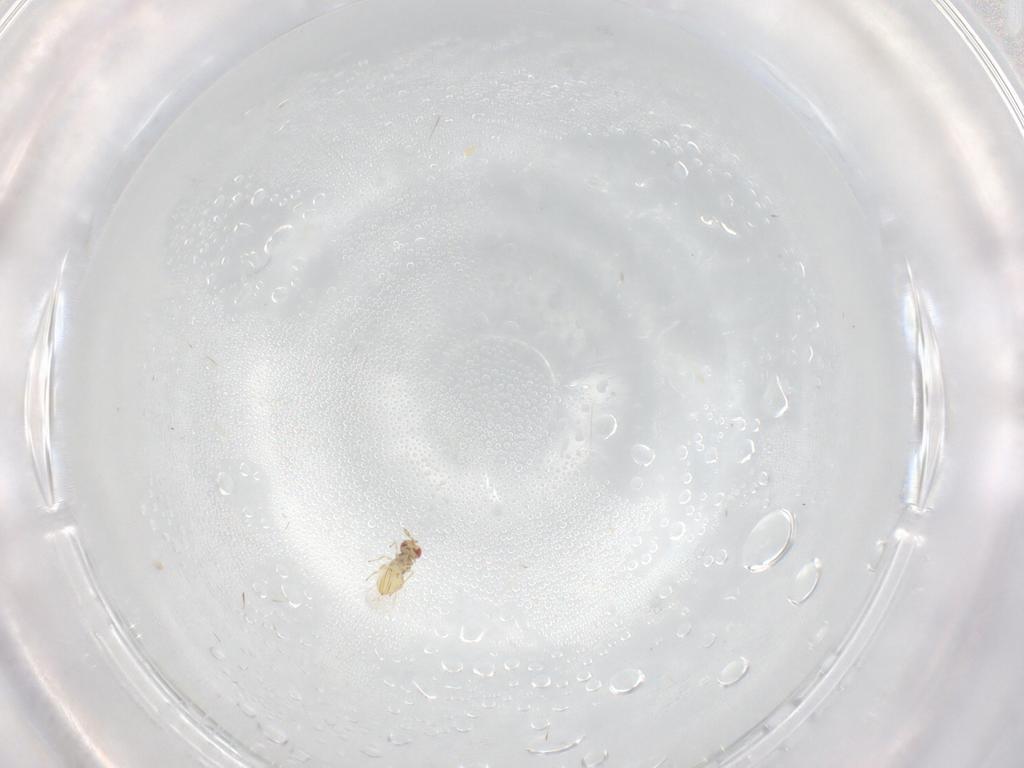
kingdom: Animalia
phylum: Arthropoda
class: Insecta
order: Hymenoptera
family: Trichogrammatidae
